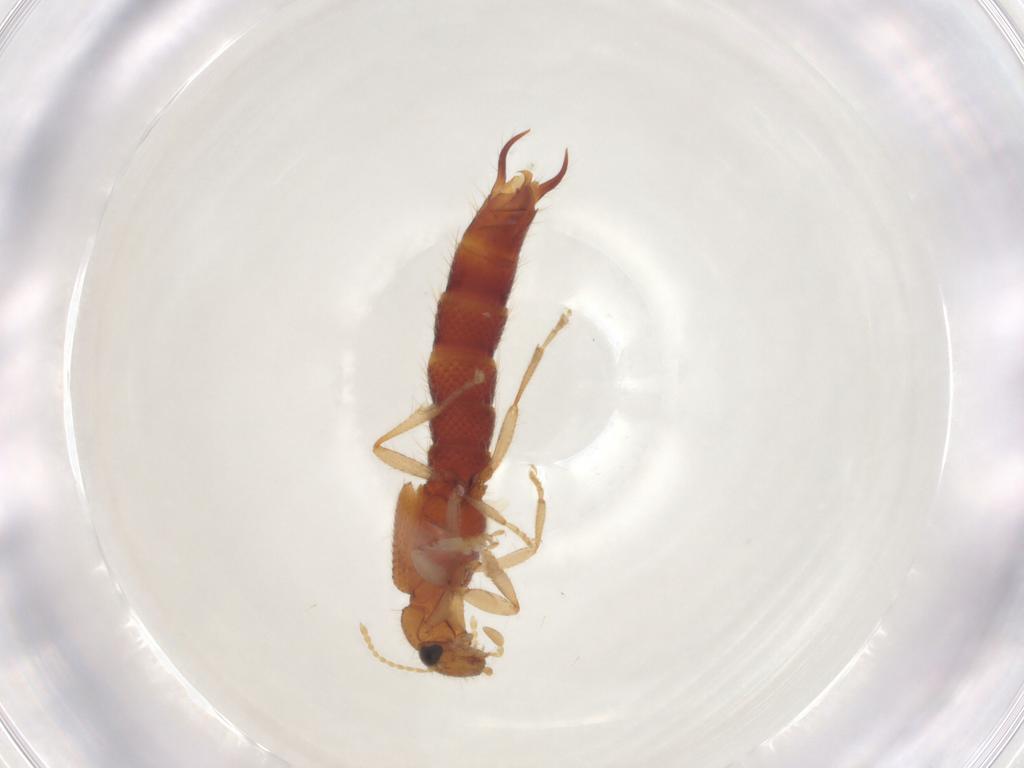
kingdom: Animalia
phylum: Arthropoda
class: Insecta
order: Coleoptera
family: Staphylinidae
